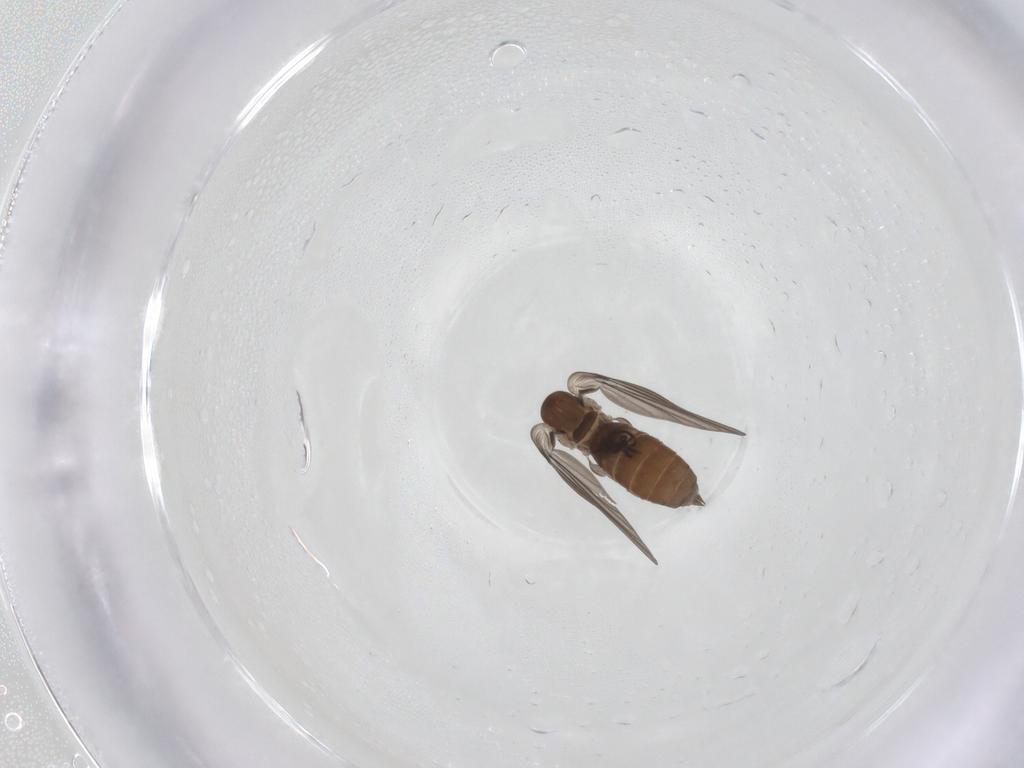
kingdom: Animalia
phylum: Arthropoda
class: Insecta
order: Diptera
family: Psychodidae
